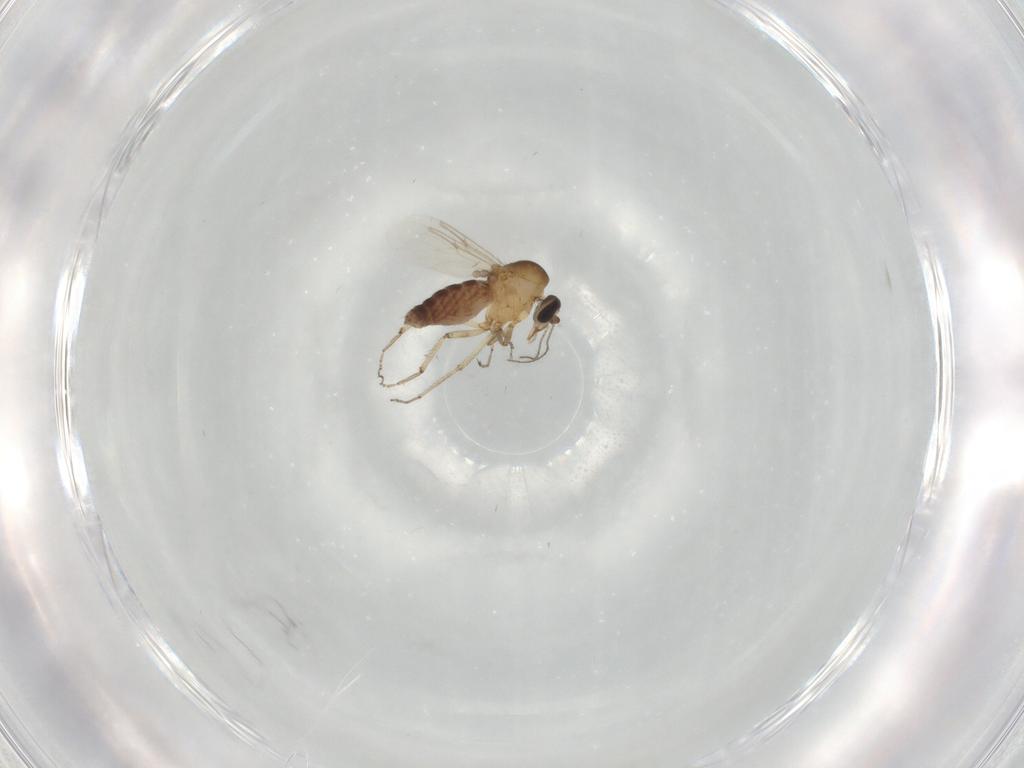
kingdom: Animalia
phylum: Arthropoda
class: Insecta
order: Diptera
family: Ceratopogonidae
